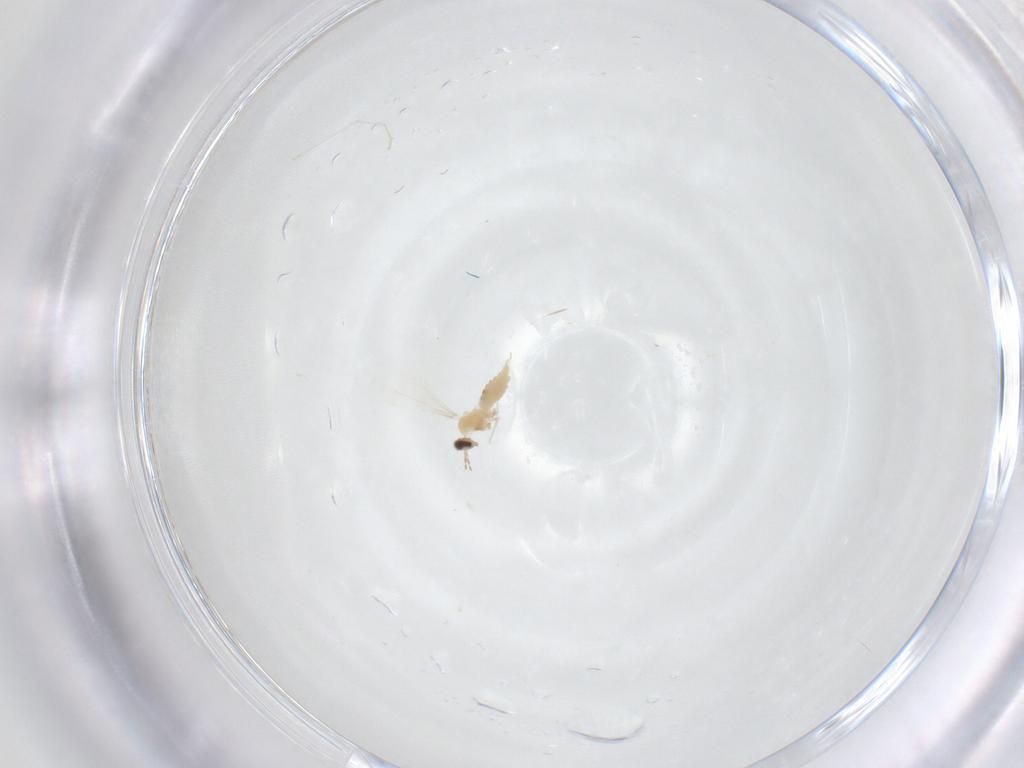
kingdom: Animalia
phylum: Arthropoda
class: Insecta
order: Diptera
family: Cecidomyiidae
